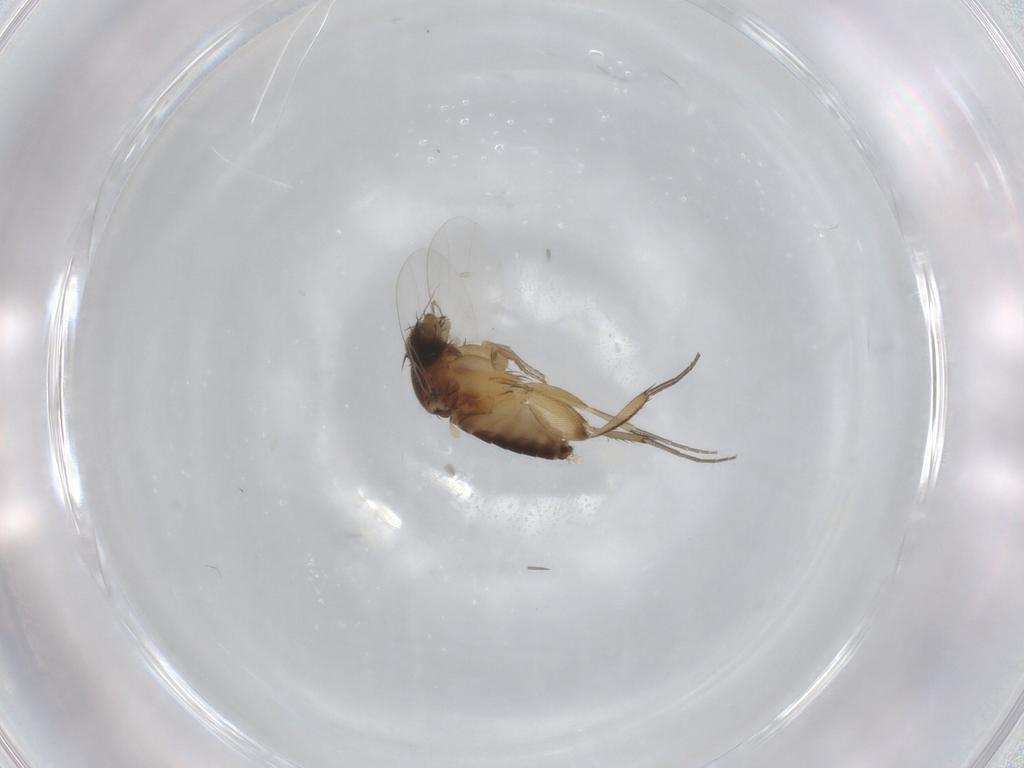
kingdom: Animalia
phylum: Arthropoda
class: Insecta
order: Diptera
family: Phoridae
